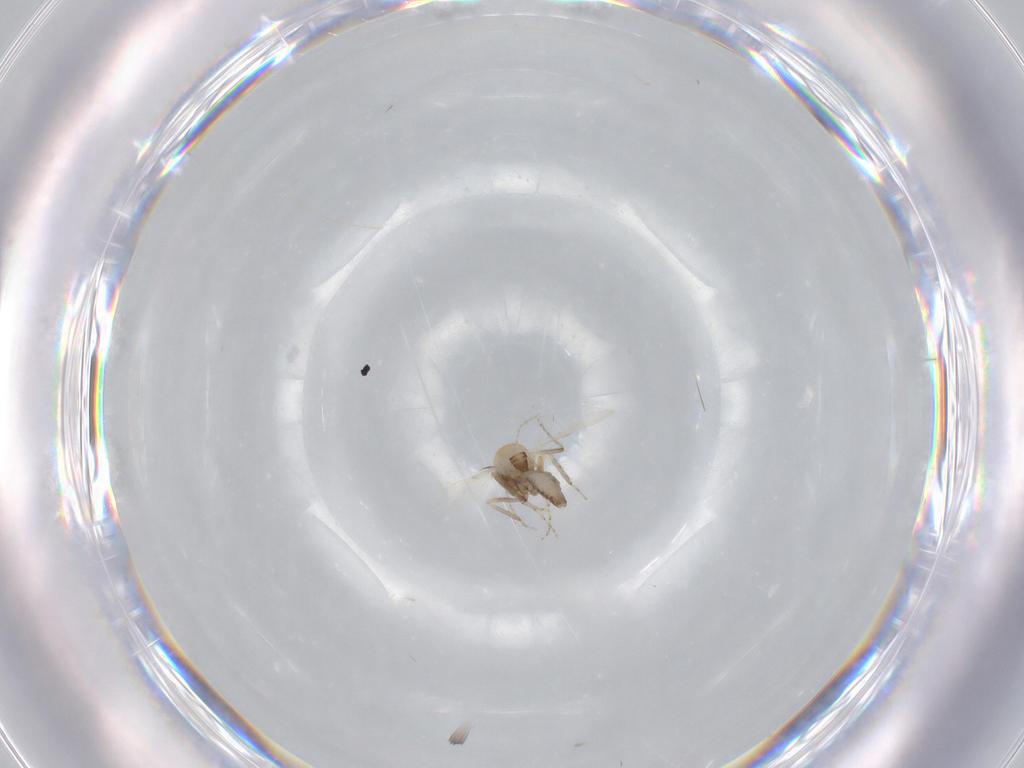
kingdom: Animalia
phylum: Arthropoda
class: Insecta
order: Diptera
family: Ceratopogonidae
